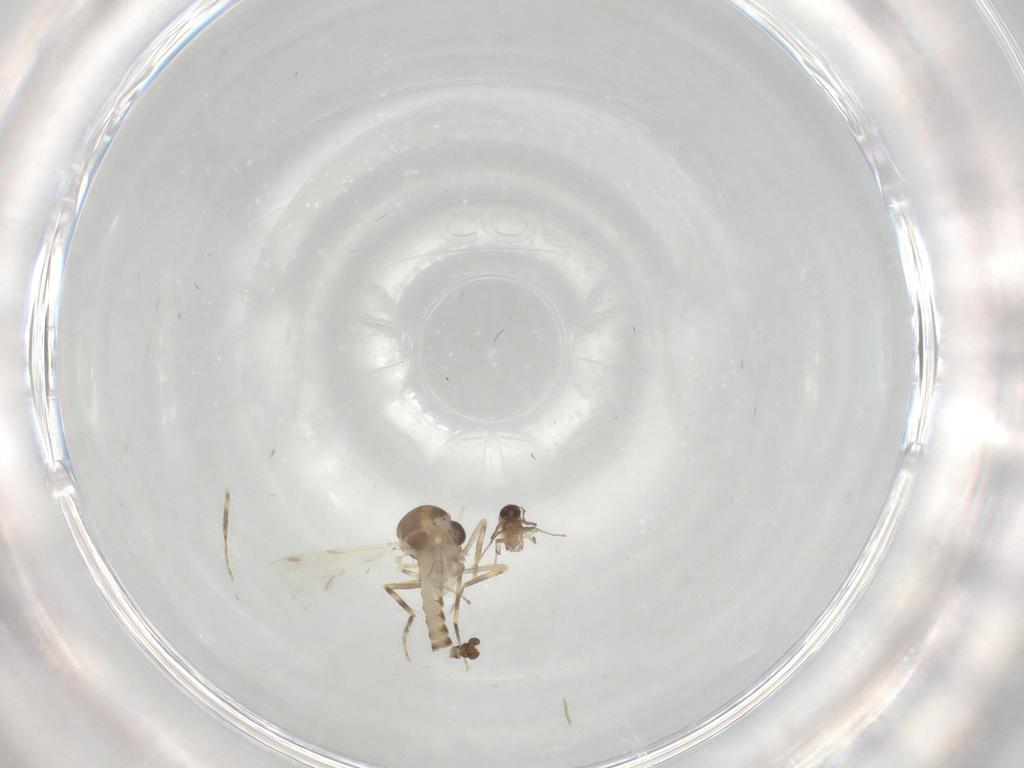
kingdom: Animalia
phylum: Arthropoda
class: Insecta
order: Diptera
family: Ceratopogonidae
